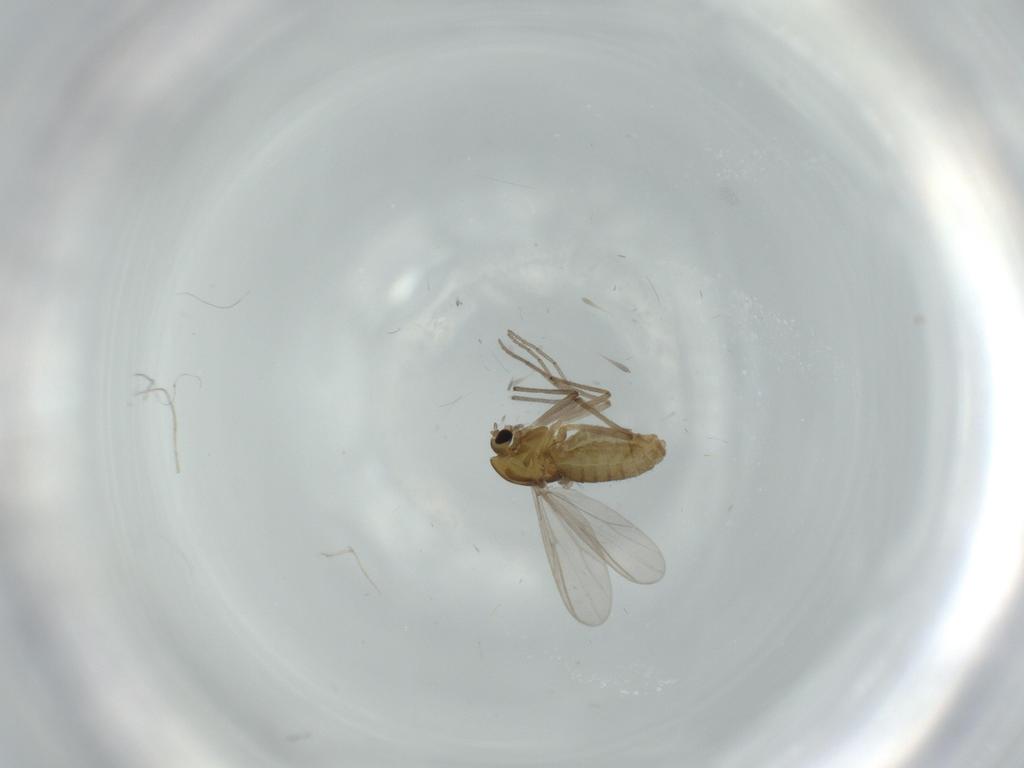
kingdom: Animalia
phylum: Arthropoda
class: Insecta
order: Diptera
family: Chironomidae
